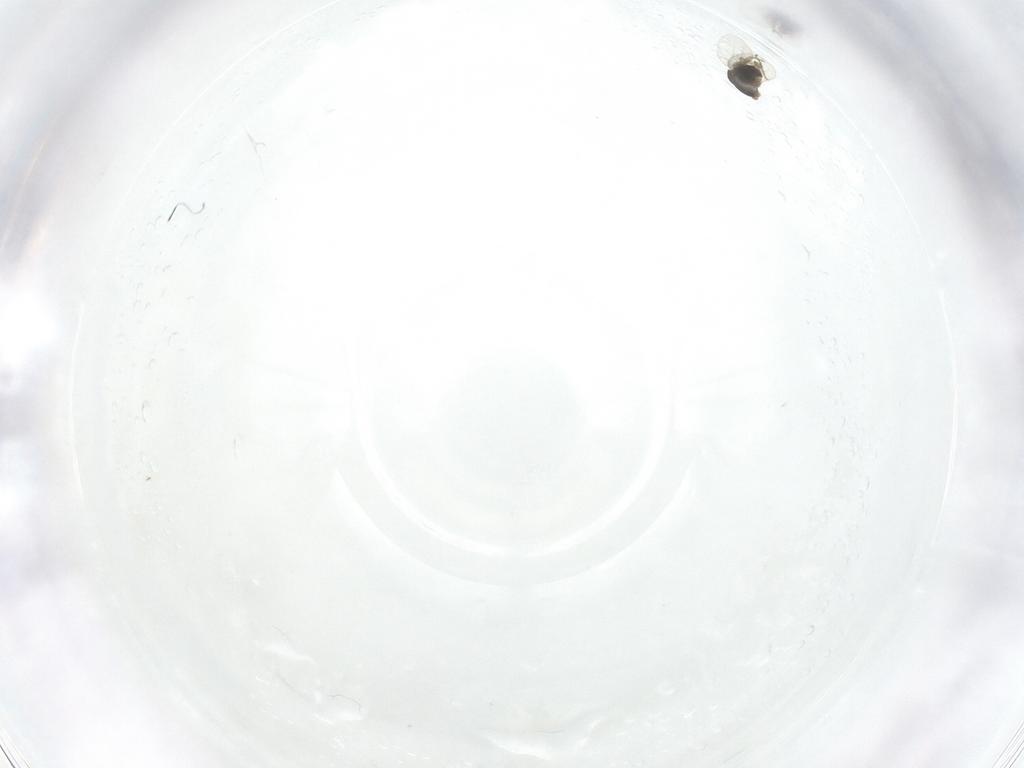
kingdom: Animalia
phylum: Arthropoda
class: Insecta
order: Diptera
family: Phoridae
